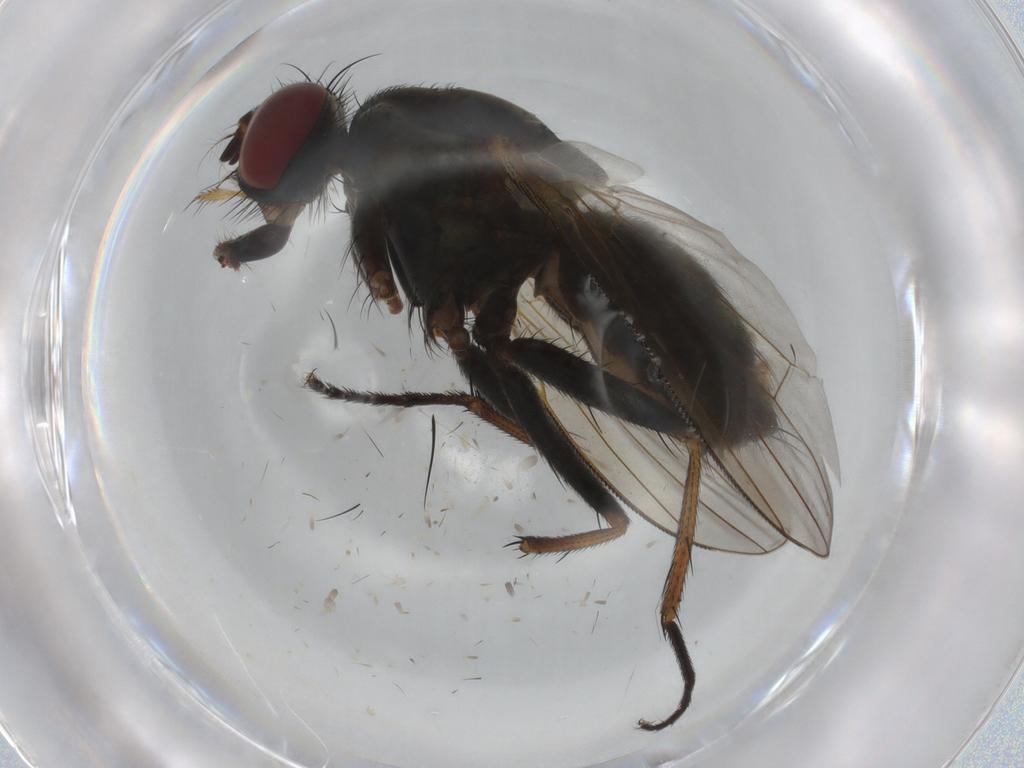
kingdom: Animalia
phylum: Arthropoda
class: Insecta
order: Diptera
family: Muscidae
